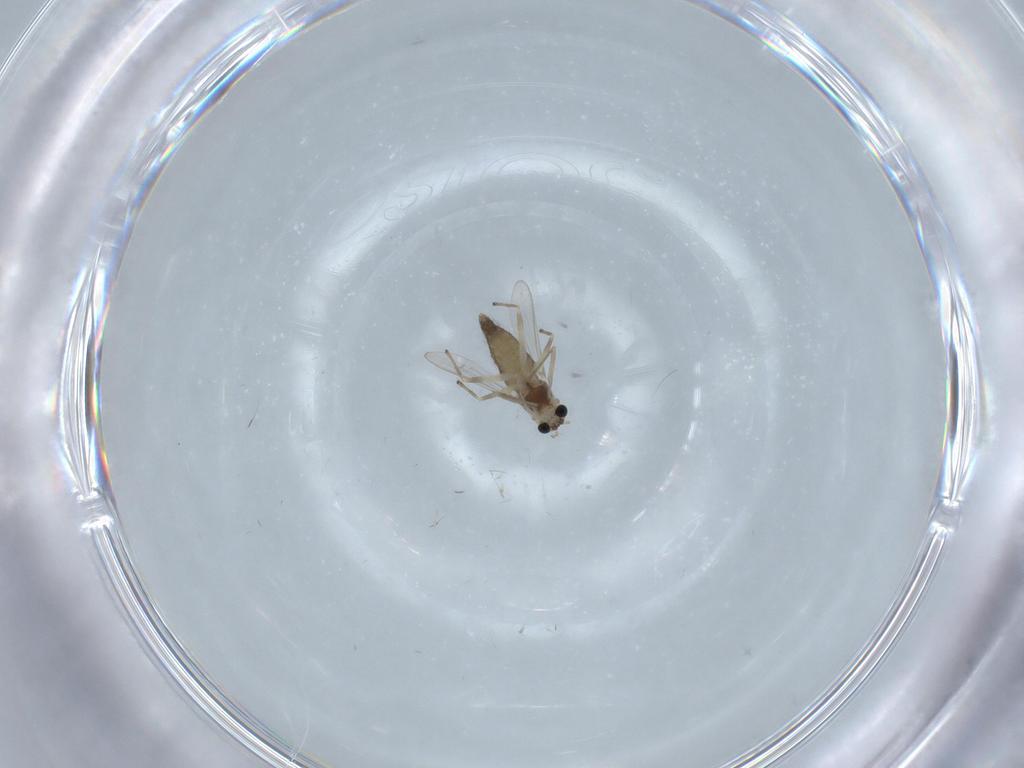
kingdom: Animalia
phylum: Arthropoda
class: Insecta
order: Diptera
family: Chironomidae
